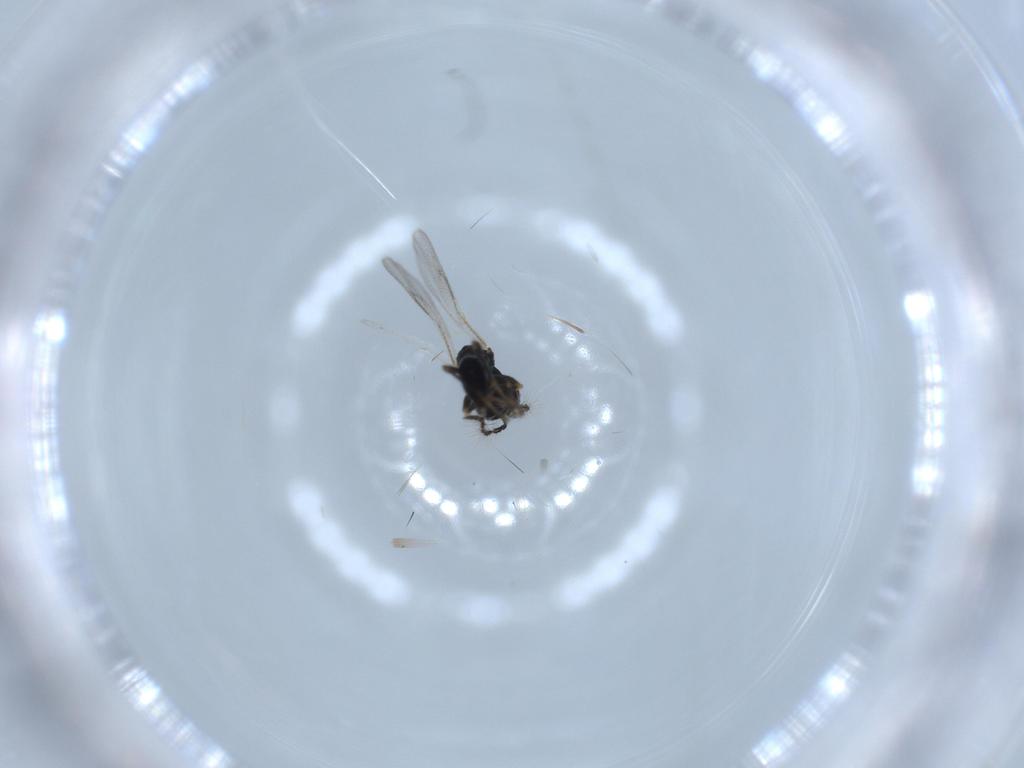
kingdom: Animalia
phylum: Arthropoda
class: Insecta
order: Hymenoptera
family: Eurytomidae
